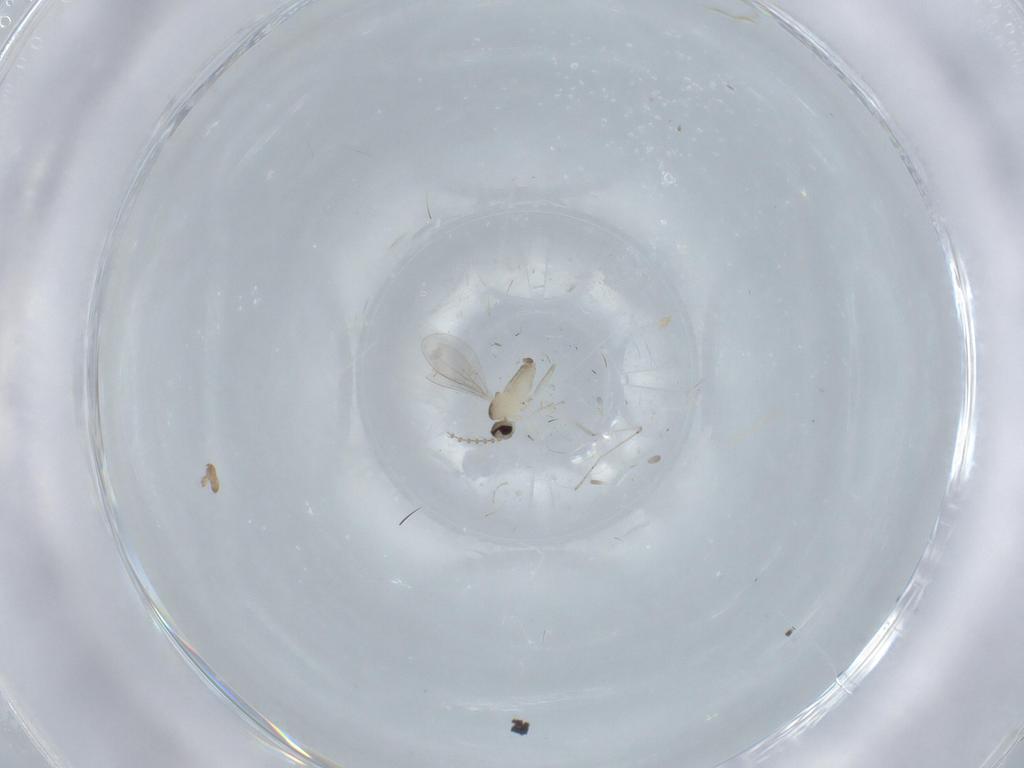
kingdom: Animalia
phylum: Arthropoda
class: Insecta
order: Diptera
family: Cecidomyiidae
